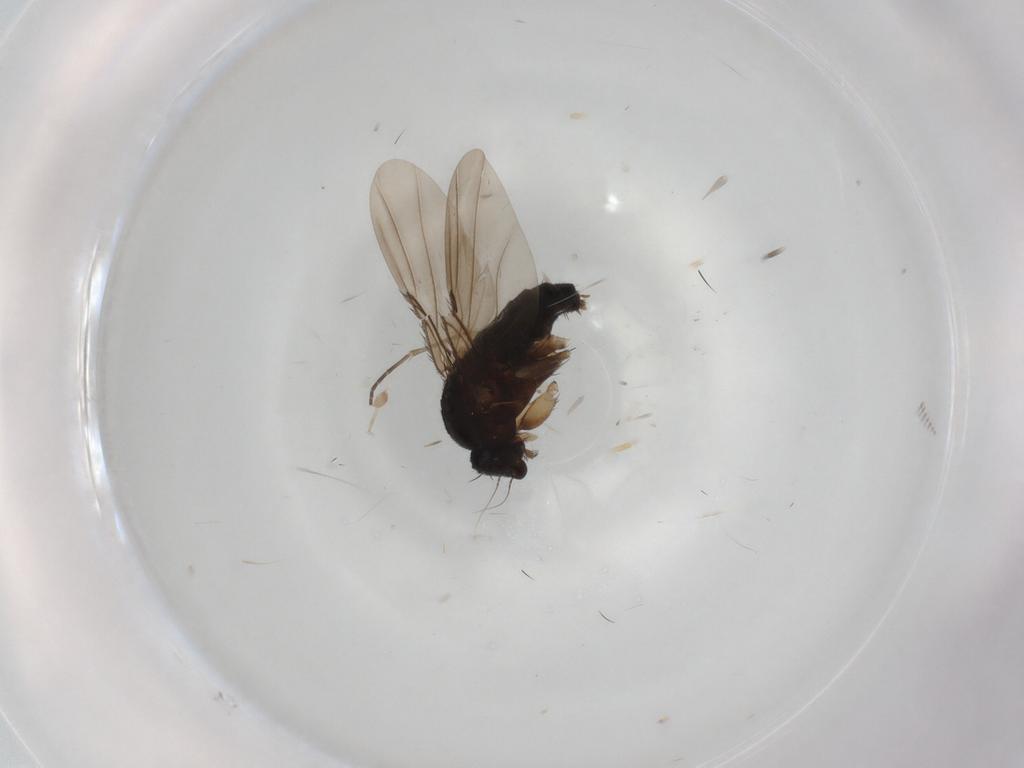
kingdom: Animalia
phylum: Arthropoda
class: Insecta
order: Diptera
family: Phoridae
